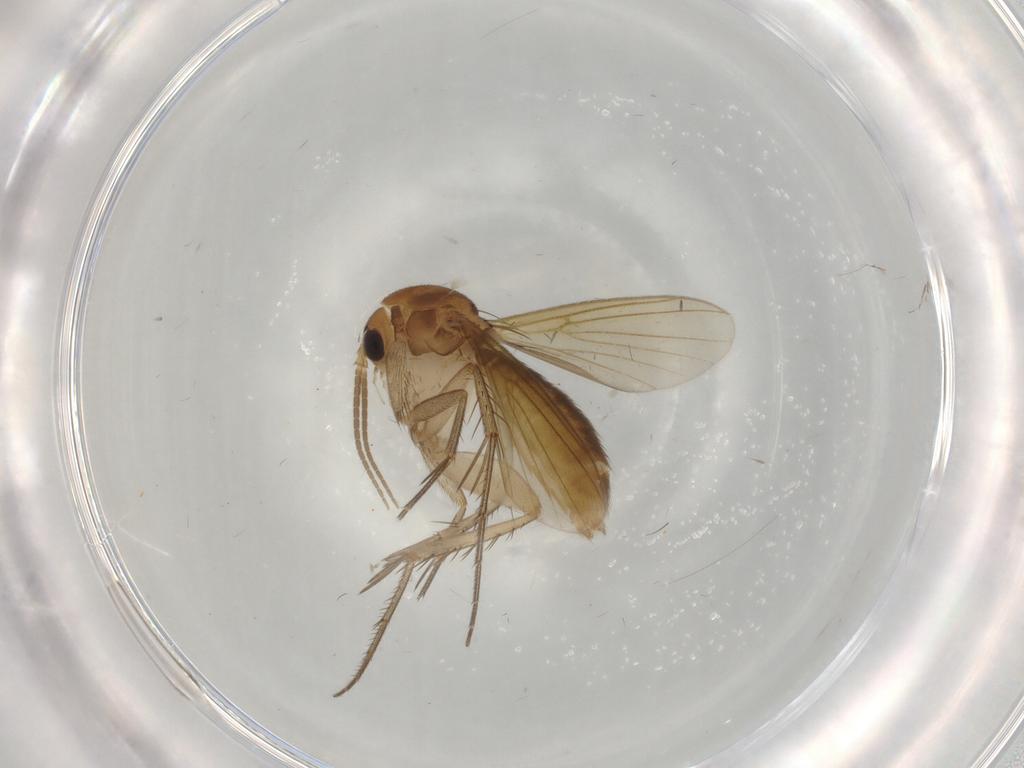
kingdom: Animalia
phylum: Arthropoda
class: Insecta
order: Diptera
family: Mycetophilidae
